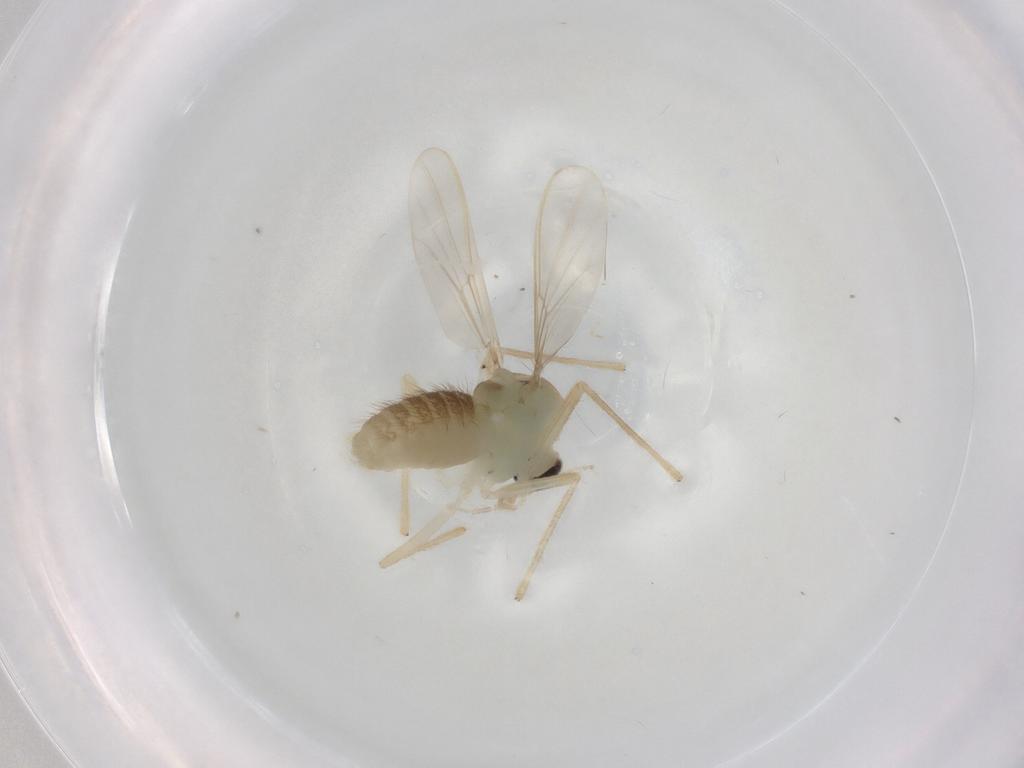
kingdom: Animalia
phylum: Arthropoda
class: Insecta
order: Diptera
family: Chironomidae
